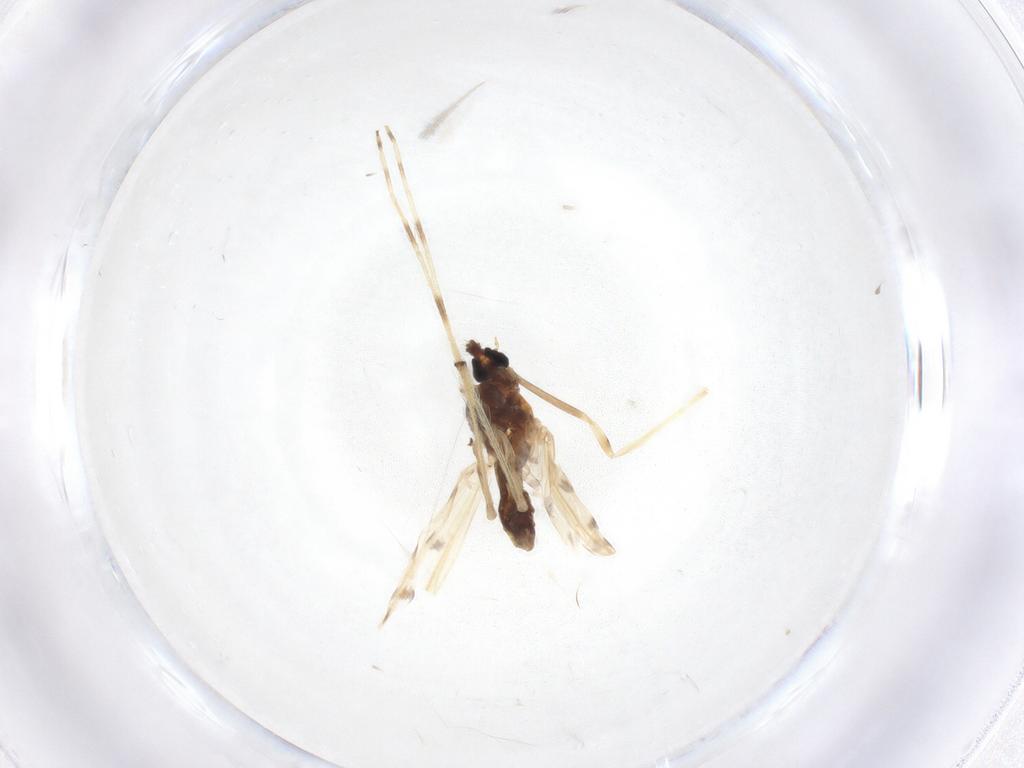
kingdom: Animalia
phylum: Arthropoda
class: Insecta
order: Diptera
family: Chironomidae
